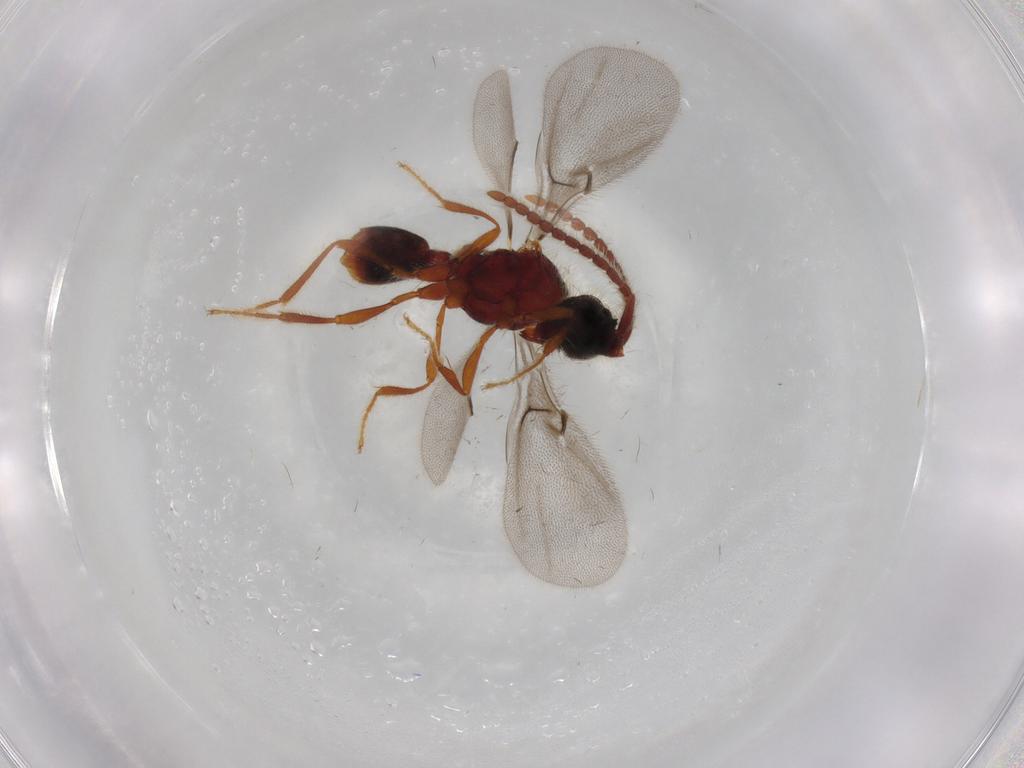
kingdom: Animalia
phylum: Arthropoda
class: Insecta
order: Hymenoptera
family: Diapriidae
